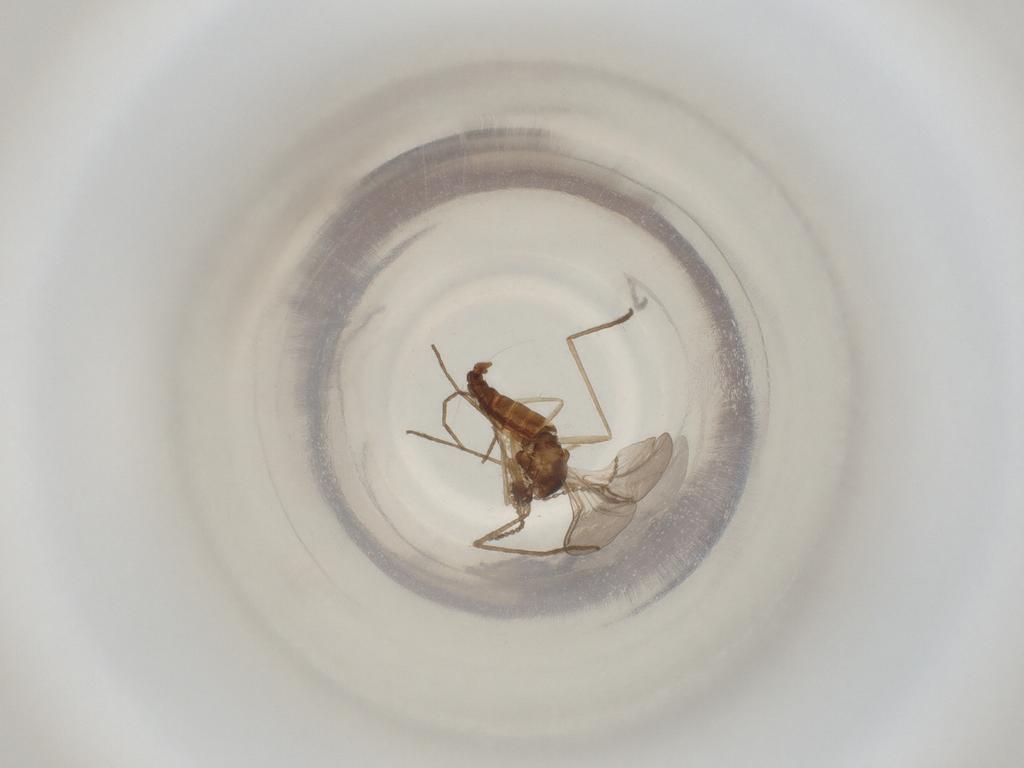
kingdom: Animalia
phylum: Arthropoda
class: Insecta
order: Diptera
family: Cecidomyiidae
